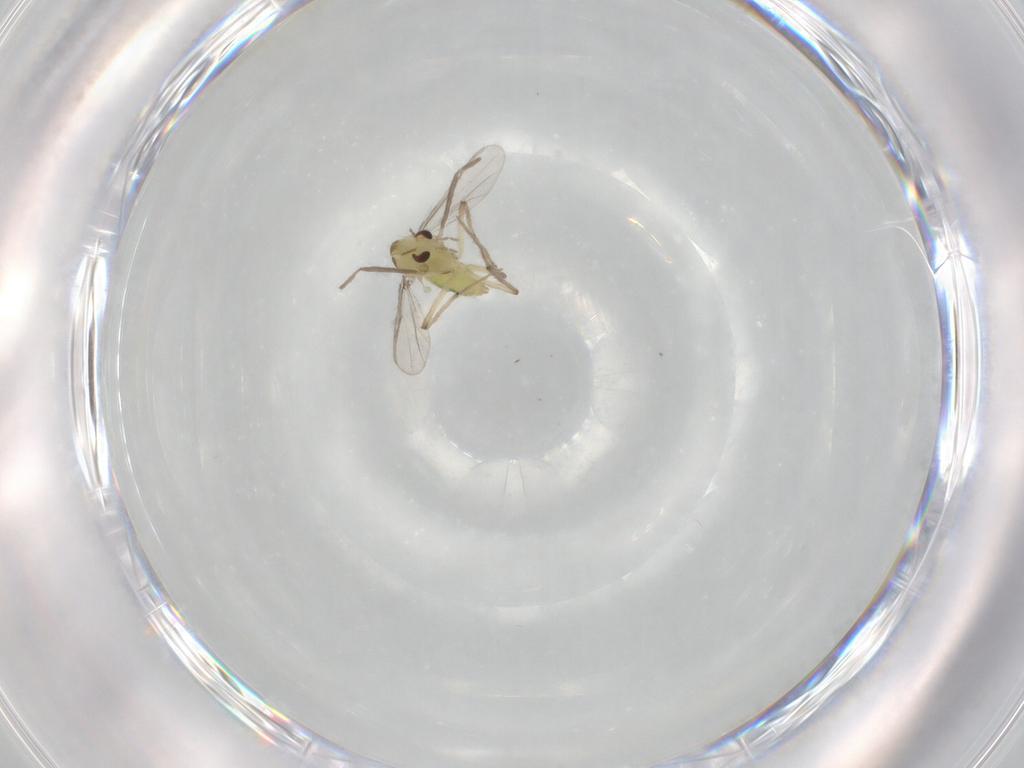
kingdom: Animalia
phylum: Arthropoda
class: Insecta
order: Diptera
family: Chironomidae
